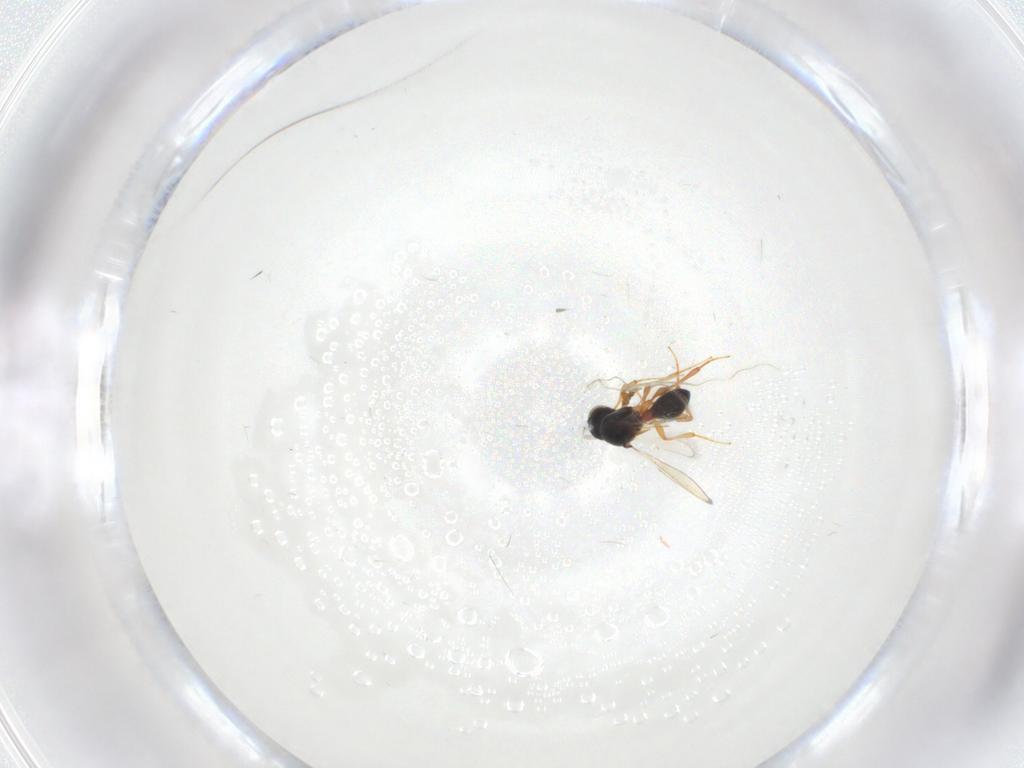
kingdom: Animalia
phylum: Arthropoda
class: Insecta
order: Hymenoptera
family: Platygastridae
